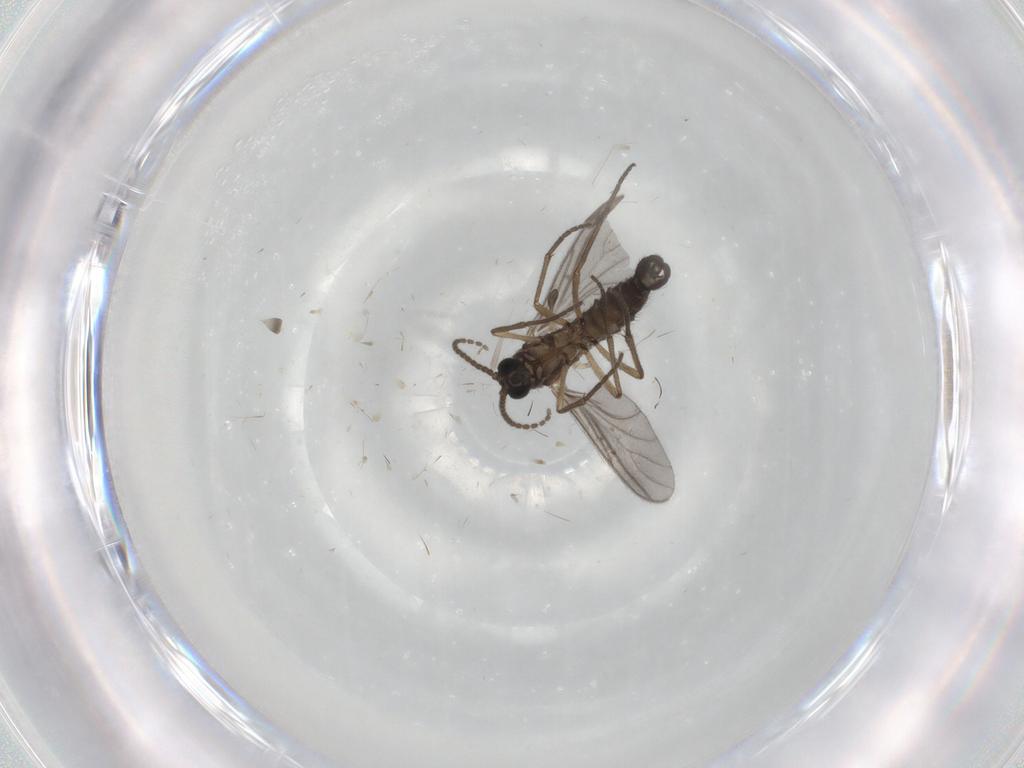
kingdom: Animalia
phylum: Arthropoda
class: Insecta
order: Diptera
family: Sciaridae
